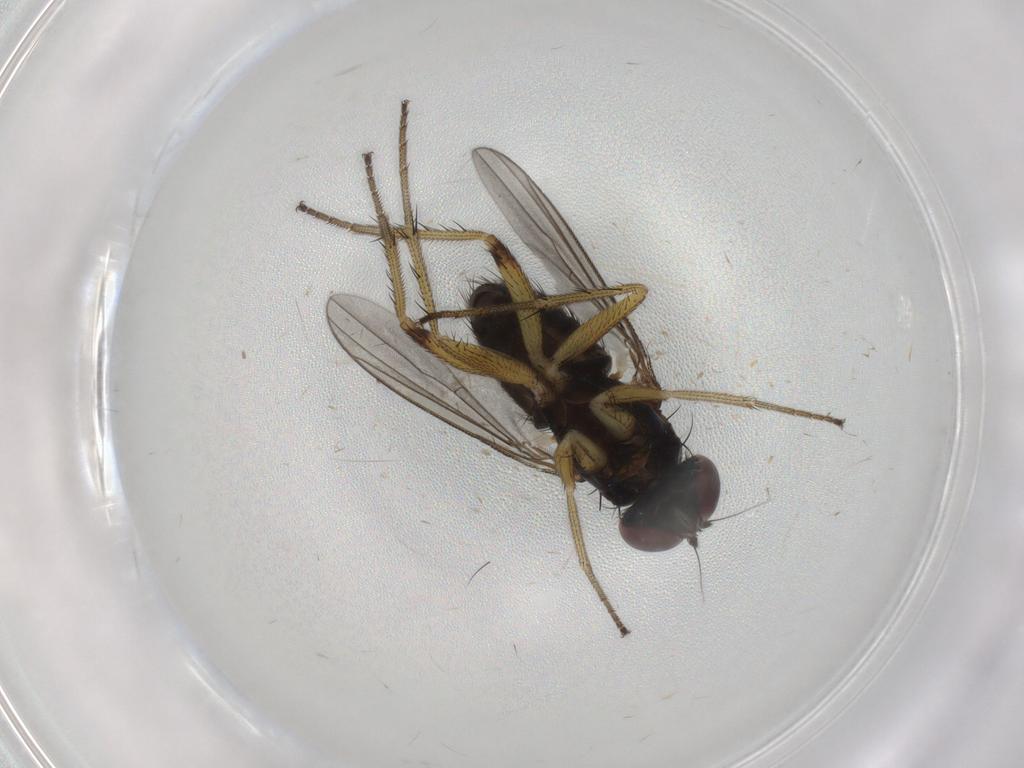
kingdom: Animalia
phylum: Arthropoda
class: Insecta
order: Diptera
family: Dolichopodidae
